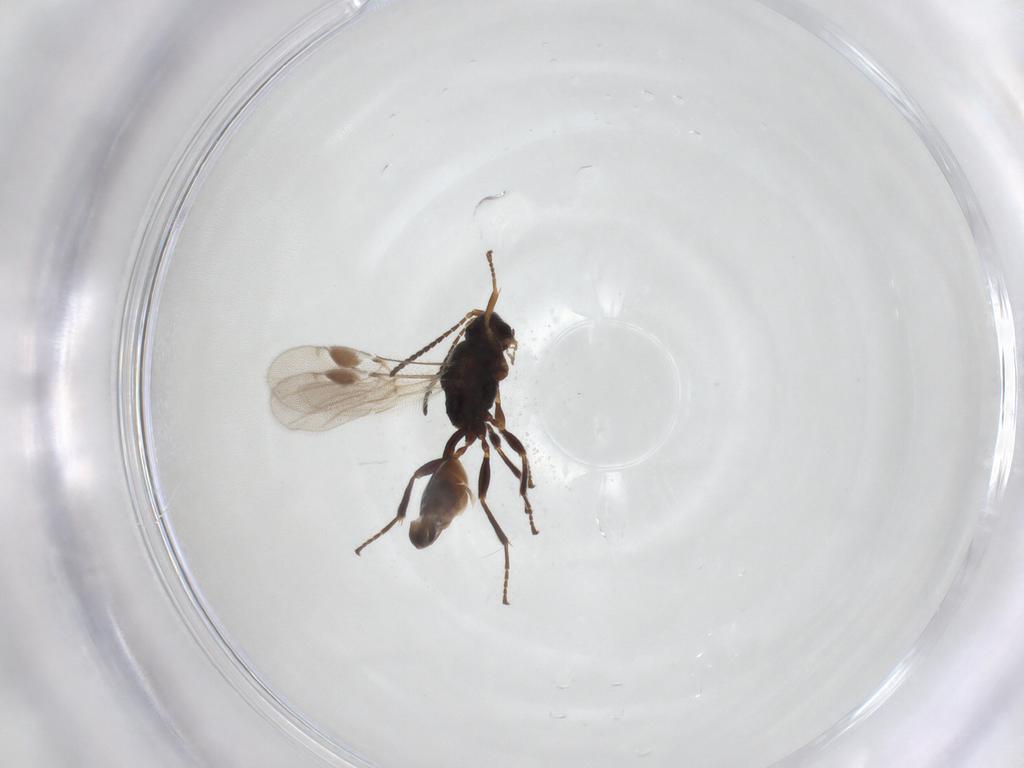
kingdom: Animalia
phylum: Arthropoda
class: Insecta
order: Hymenoptera
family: Braconidae
